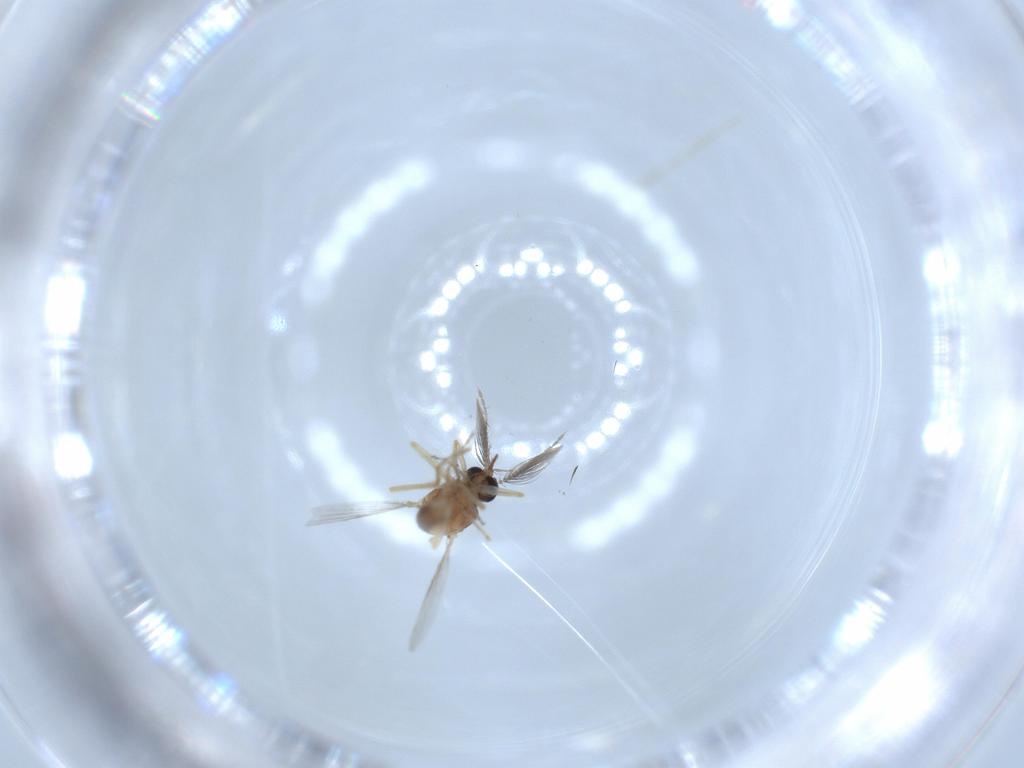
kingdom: Animalia
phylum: Arthropoda
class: Insecta
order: Diptera
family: Ceratopogonidae
